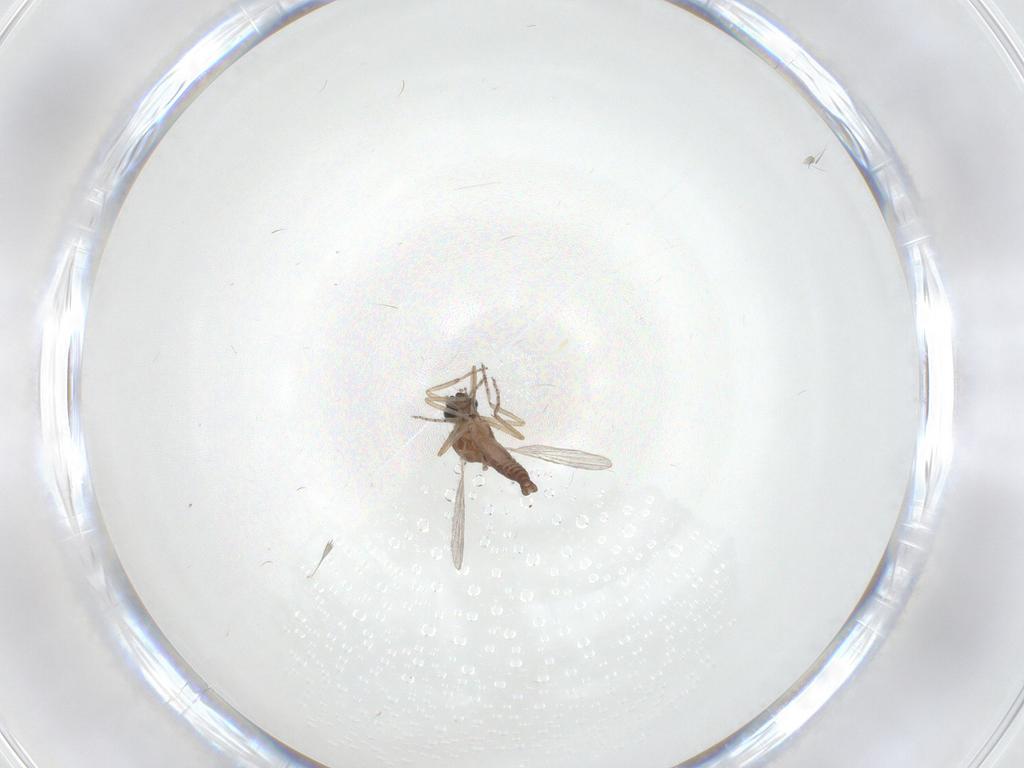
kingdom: Animalia
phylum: Arthropoda
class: Insecta
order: Diptera
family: Ceratopogonidae
